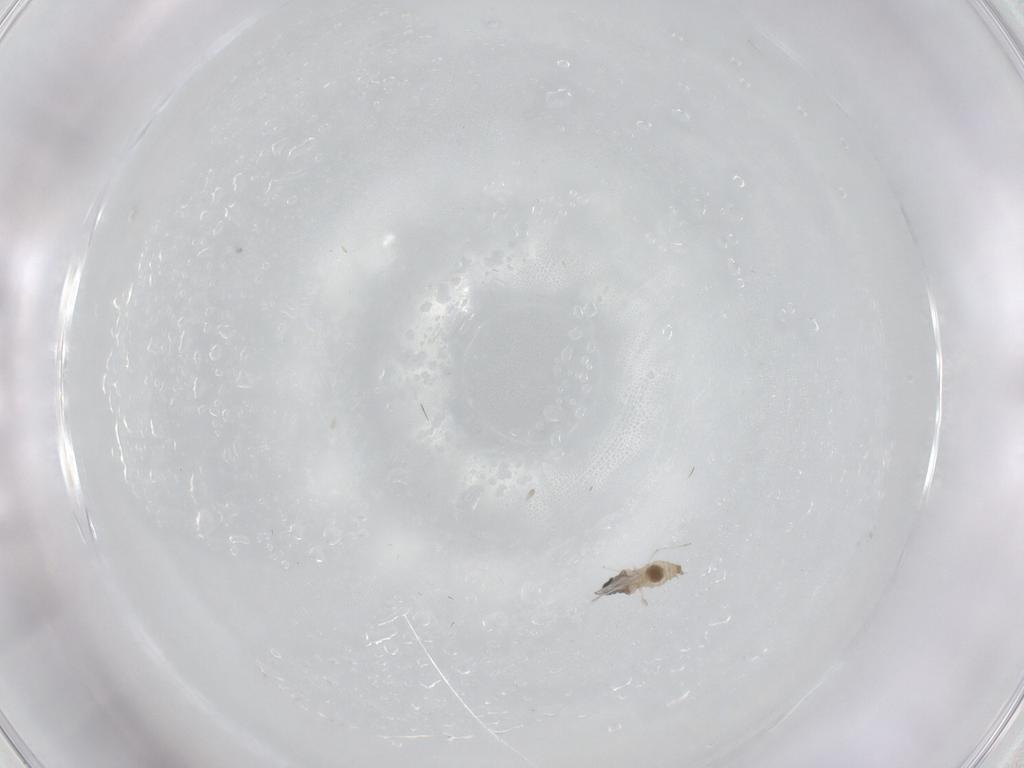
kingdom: Animalia
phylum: Arthropoda
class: Insecta
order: Diptera
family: Cecidomyiidae
